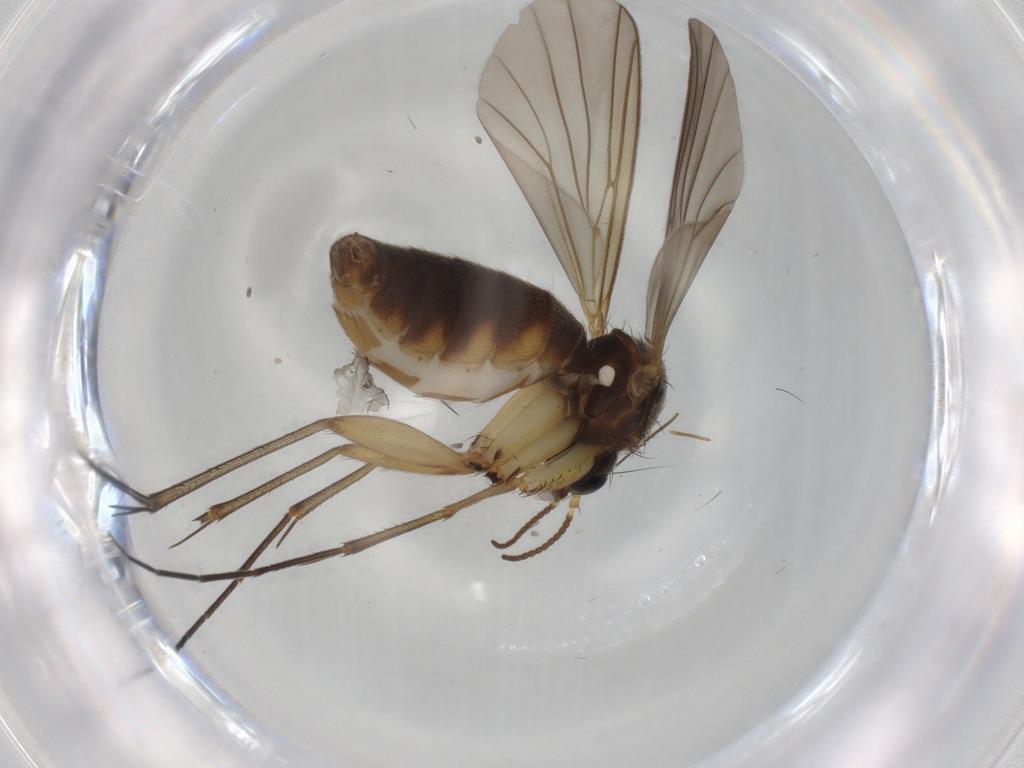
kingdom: Animalia
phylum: Arthropoda
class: Insecta
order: Diptera
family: Mycetophilidae
